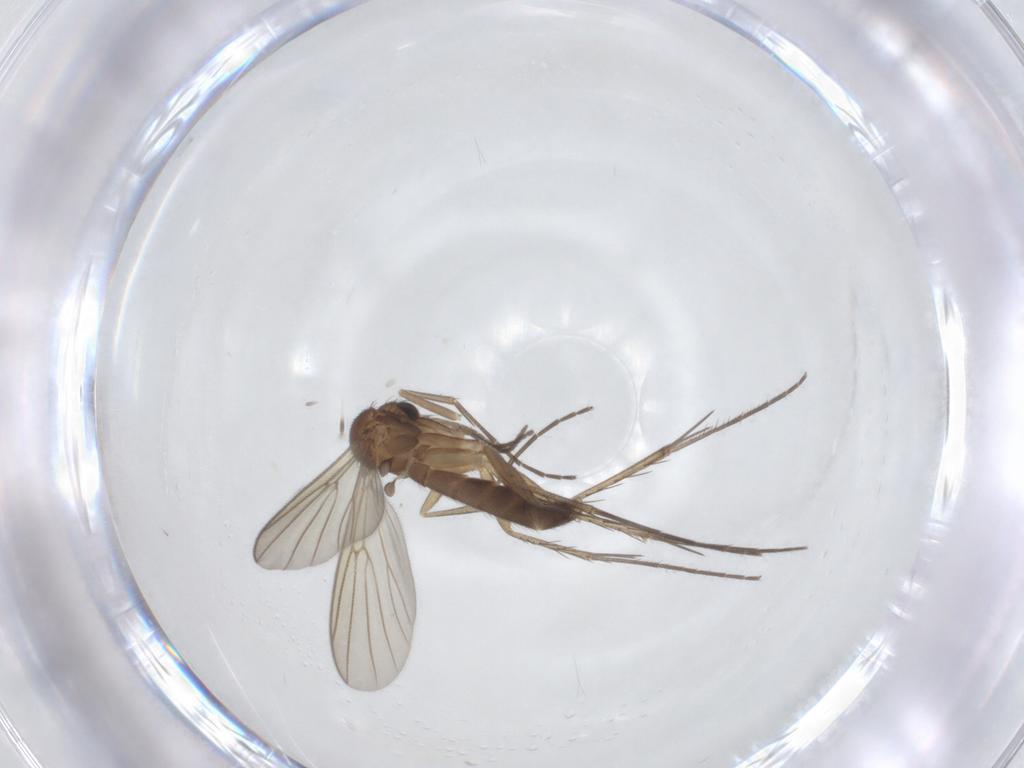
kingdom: Animalia
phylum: Arthropoda
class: Insecta
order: Diptera
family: Mycetophilidae
